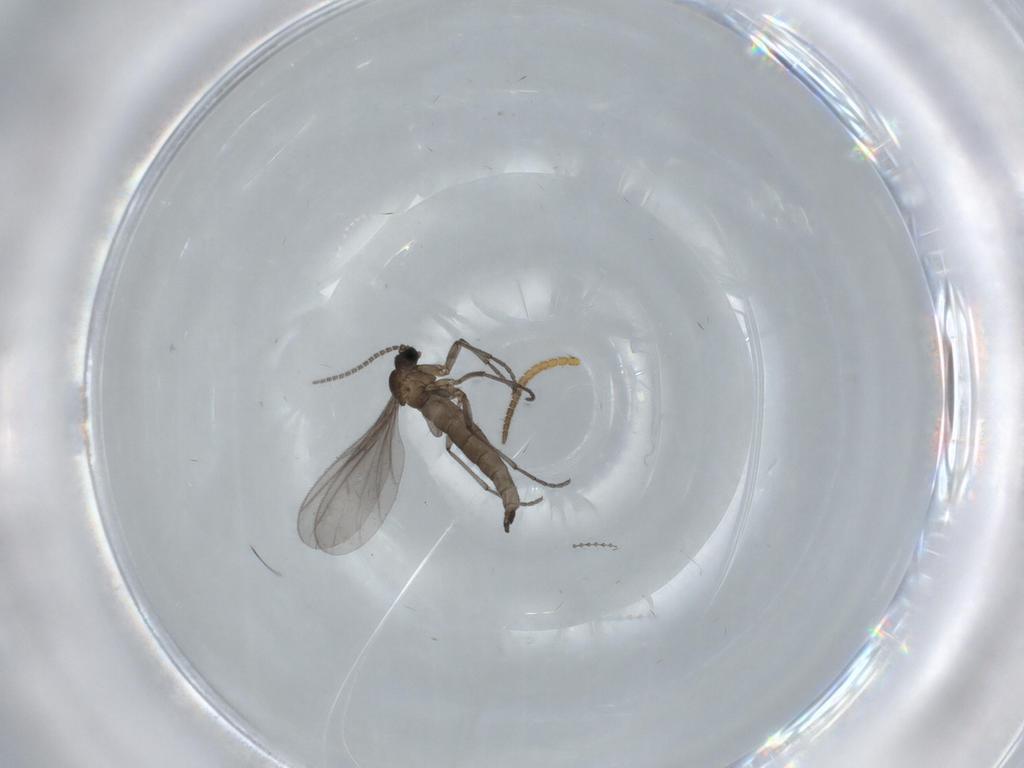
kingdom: Animalia
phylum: Arthropoda
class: Insecta
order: Diptera
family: Sciaridae
